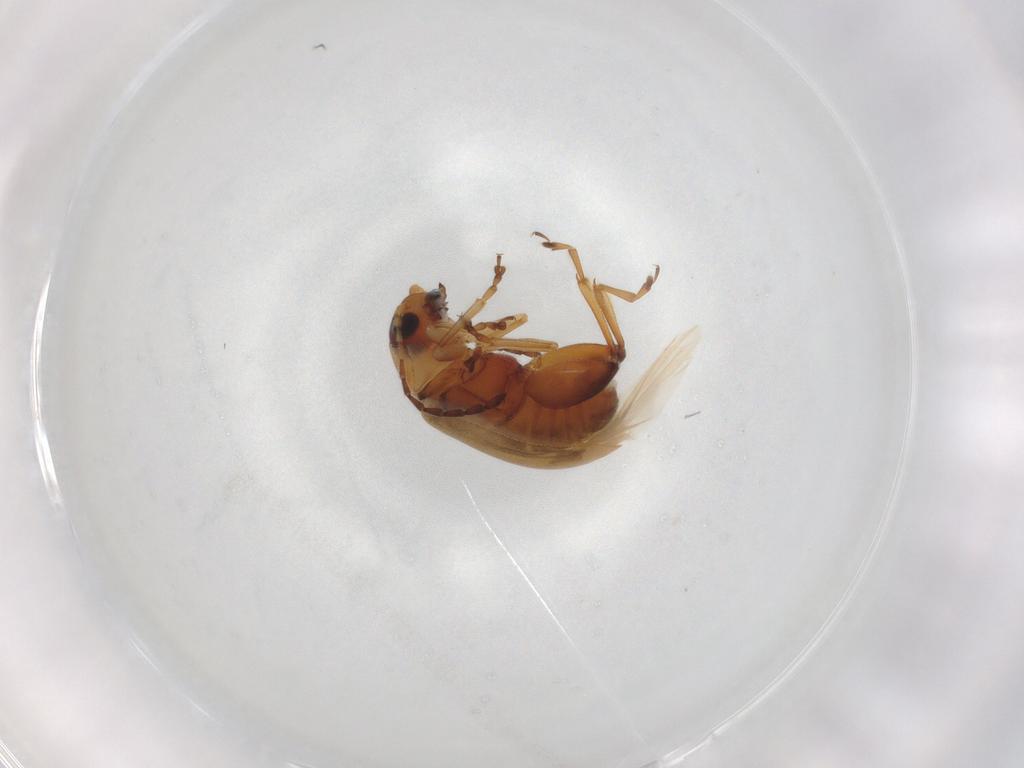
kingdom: Animalia
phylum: Arthropoda
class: Insecta
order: Coleoptera
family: Chrysomelidae
